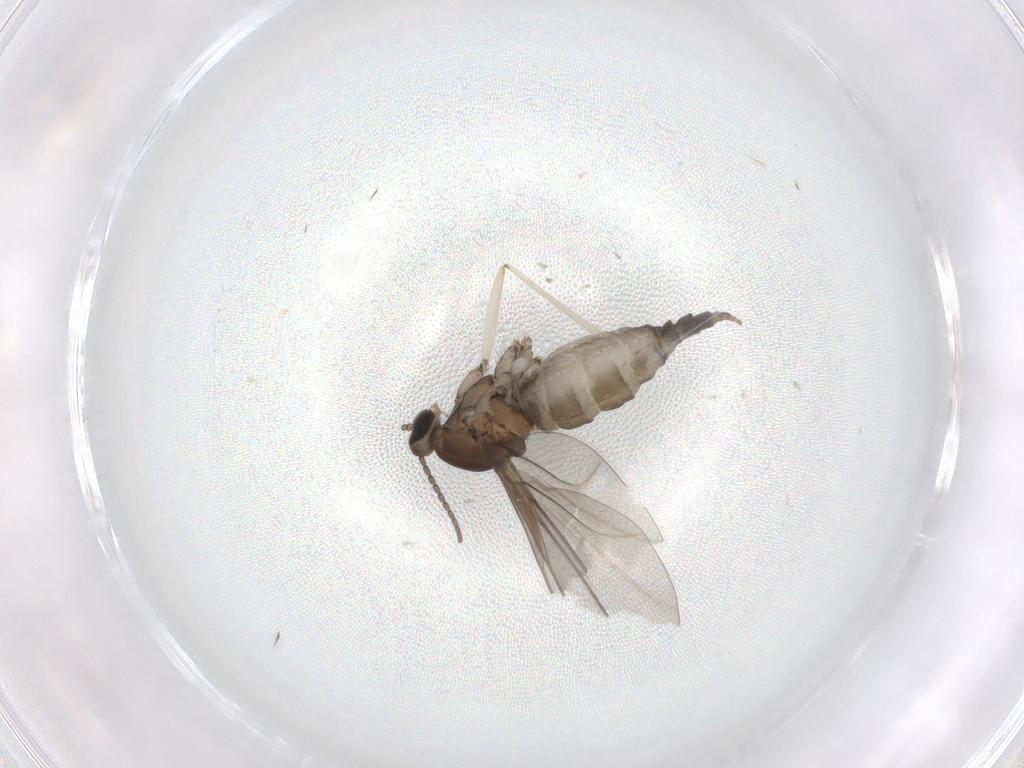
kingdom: Animalia
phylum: Arthropoda
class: Insecta
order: Diptera
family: Cecidomyiidae
